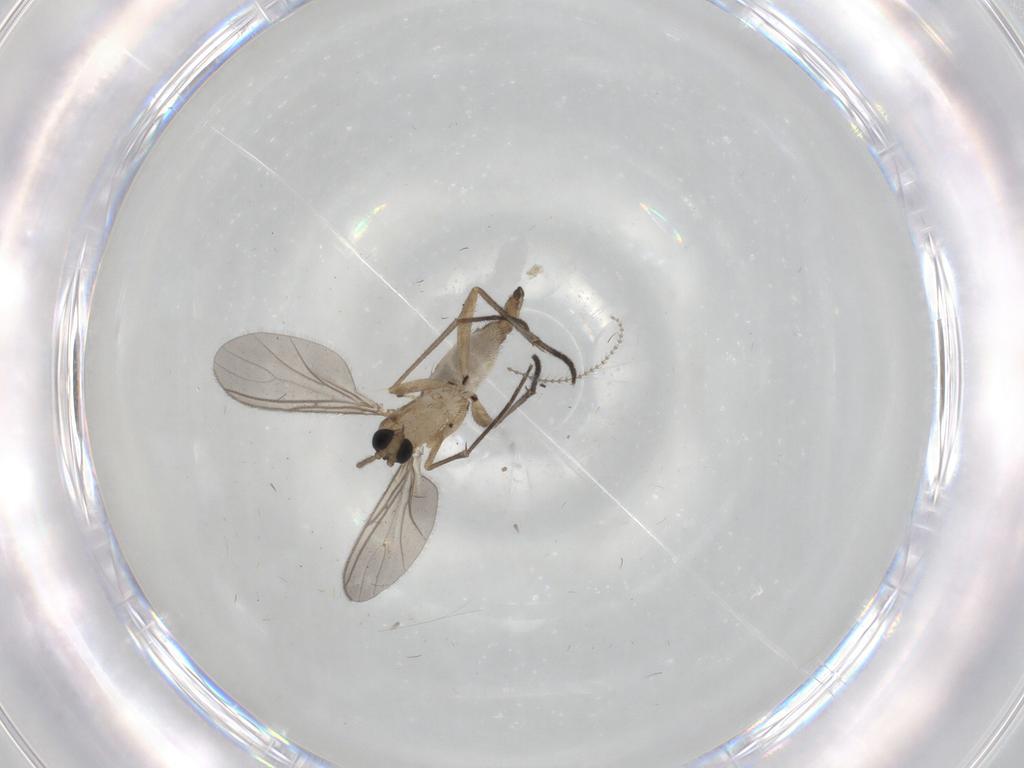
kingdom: Animalia
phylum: Arthropoda
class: Insecta
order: Diptera
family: Sciaridae
